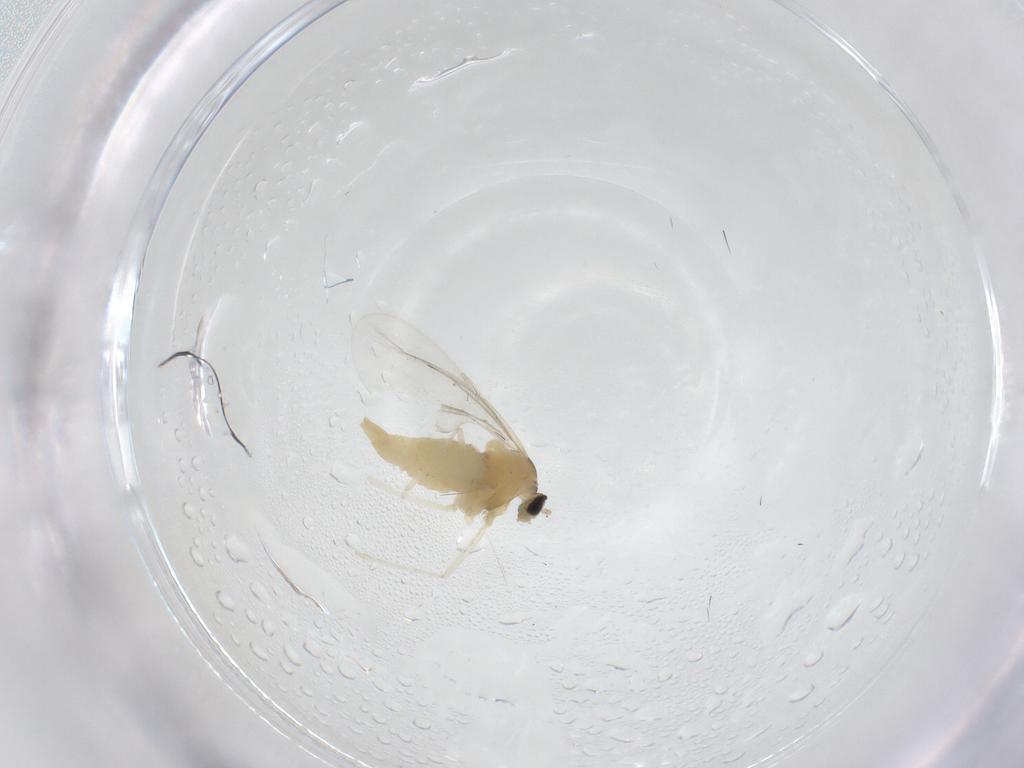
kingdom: Animalia
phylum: Arthropoda
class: Insecta
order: Diptera
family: Cecidomyiidae
